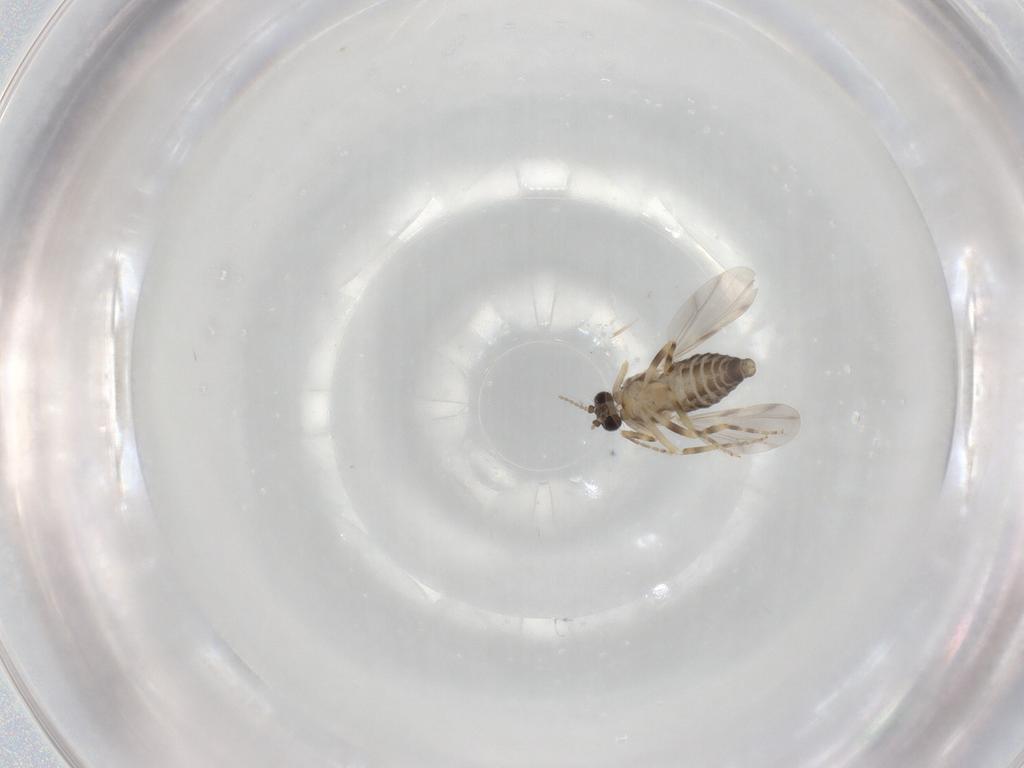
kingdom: Animalia
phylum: Arthropoda
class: Insecta
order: Diptera
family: Ceratopogonidae
